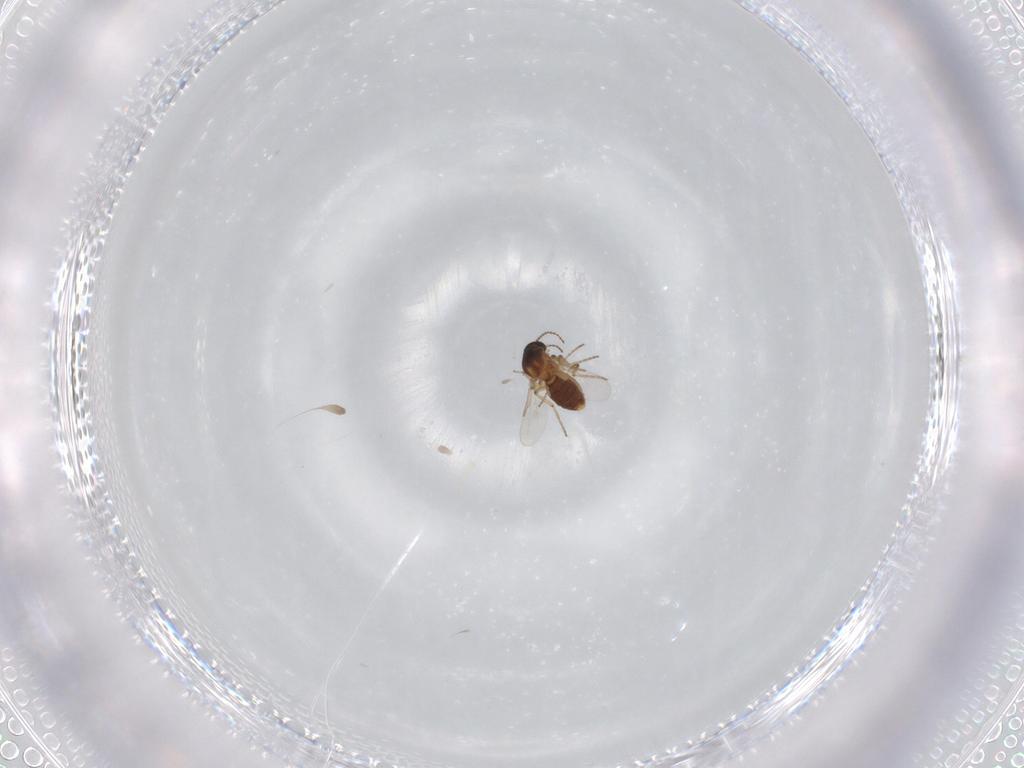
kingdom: Animalia
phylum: Arthropoda
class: Insecta
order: Diptera
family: Ceratopogonidae
